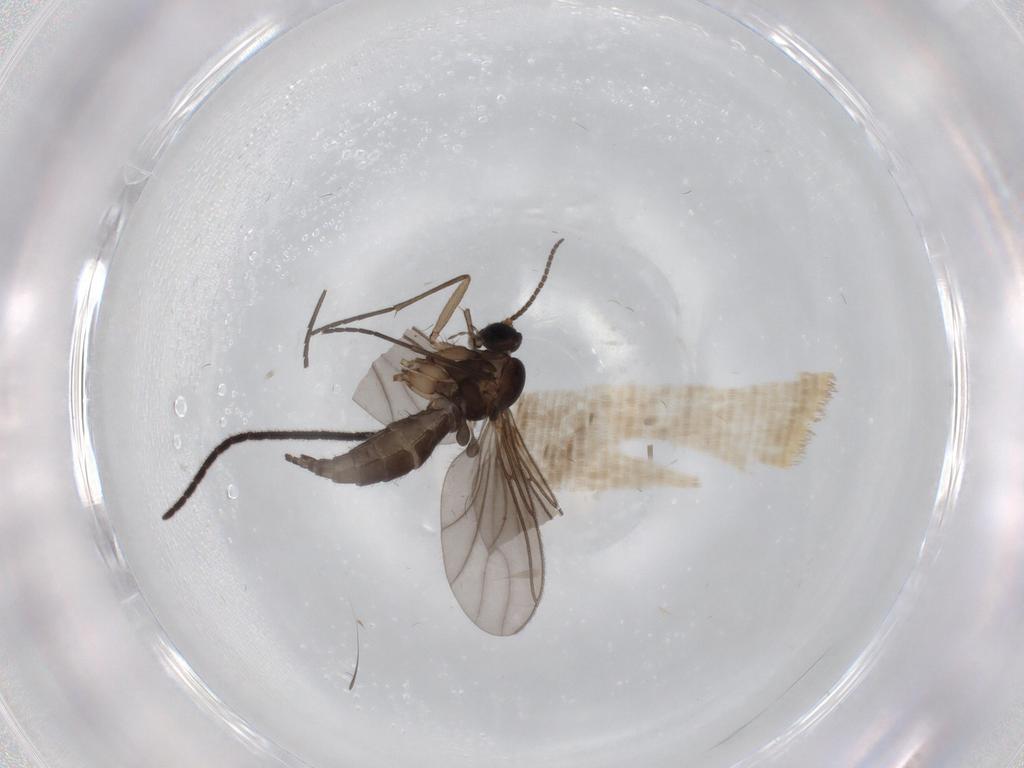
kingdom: Animalia
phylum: Arthropoda
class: Insecta
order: Diptera
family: Sciaridae
